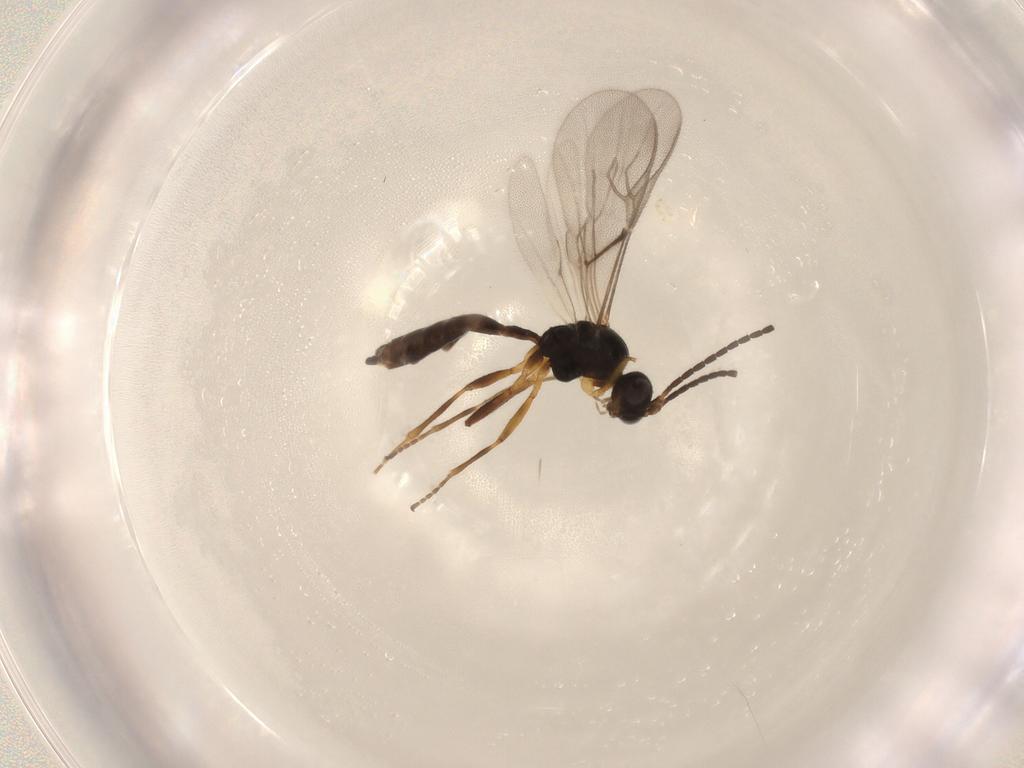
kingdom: Animalia
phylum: Arthropoda
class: Insecta
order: Hymenoptera
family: Braconidae
